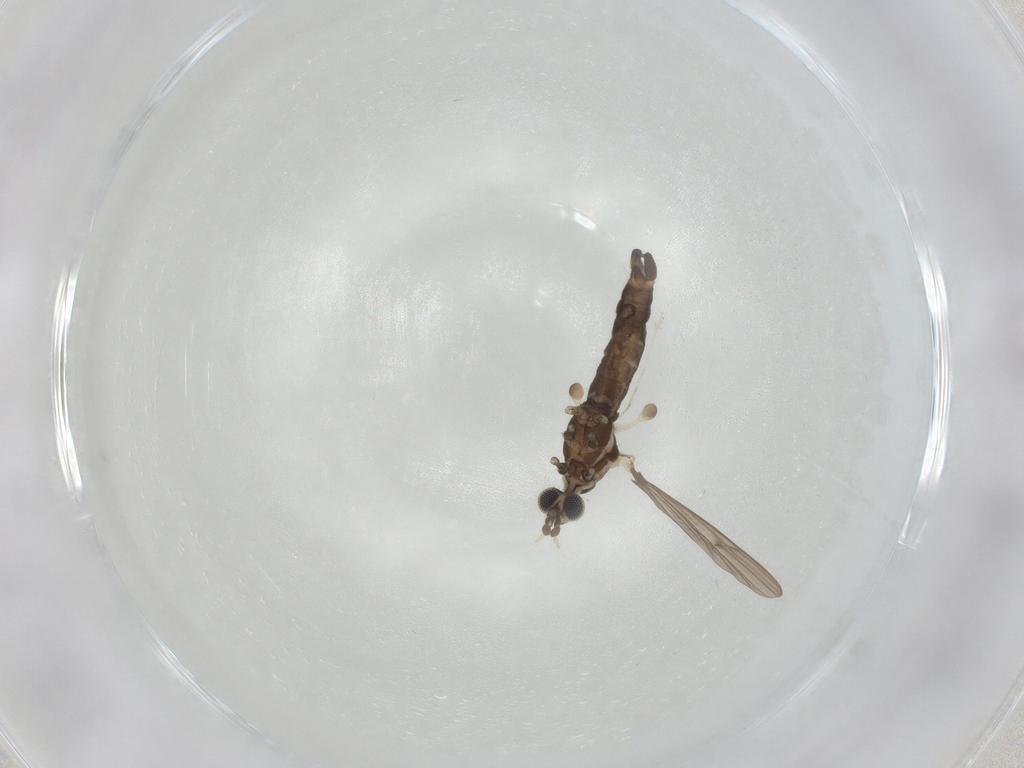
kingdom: Animalia
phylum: Arthropoda
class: Insecta
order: Diptera
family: Limoniidae
